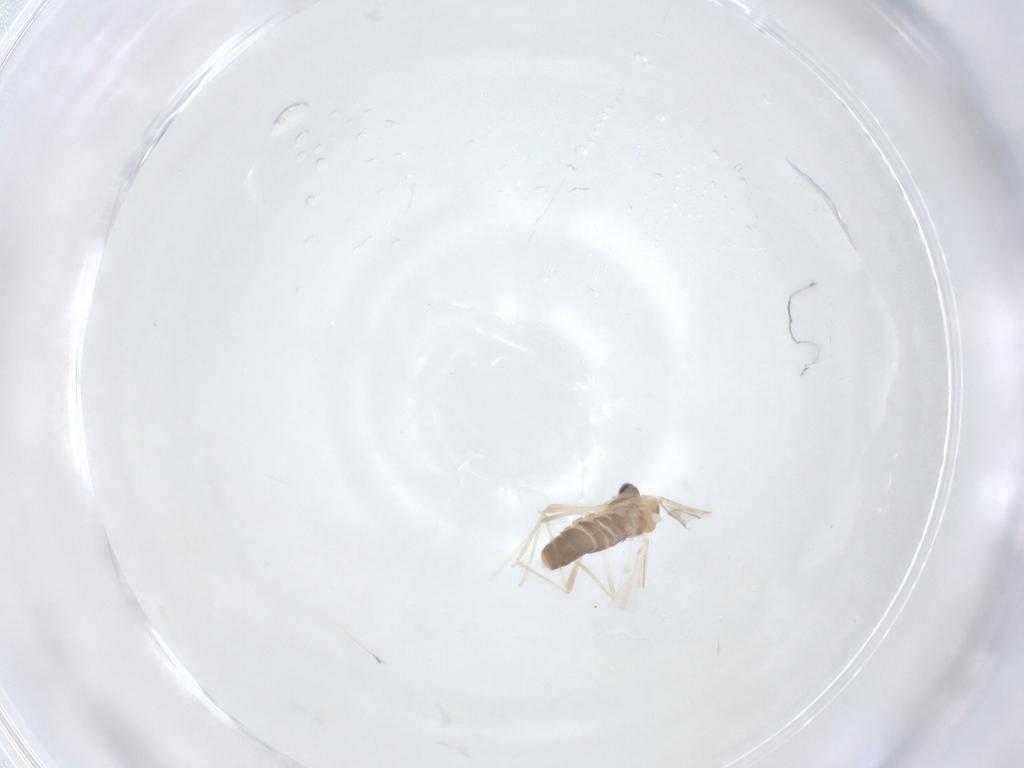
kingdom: Animalia
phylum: Arthropoda
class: Insecta
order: Diptera
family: Cecidomyiidae
